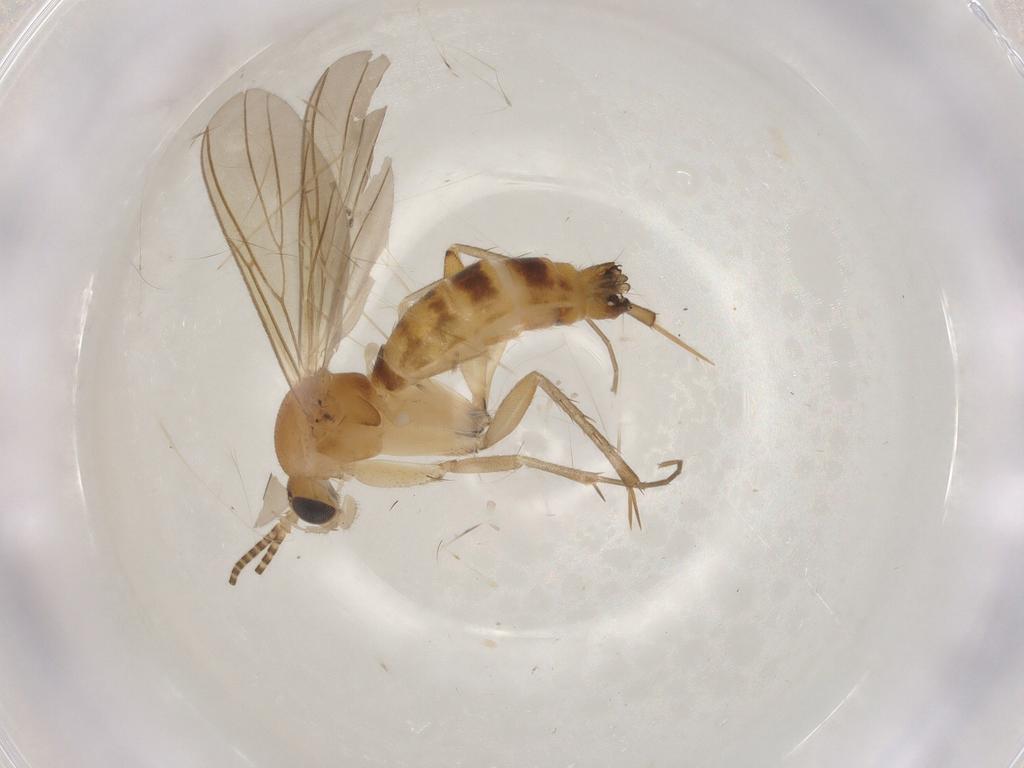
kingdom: Animalia
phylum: Arthropoda
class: Insecta
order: Diptera
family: Mycetophilidae
